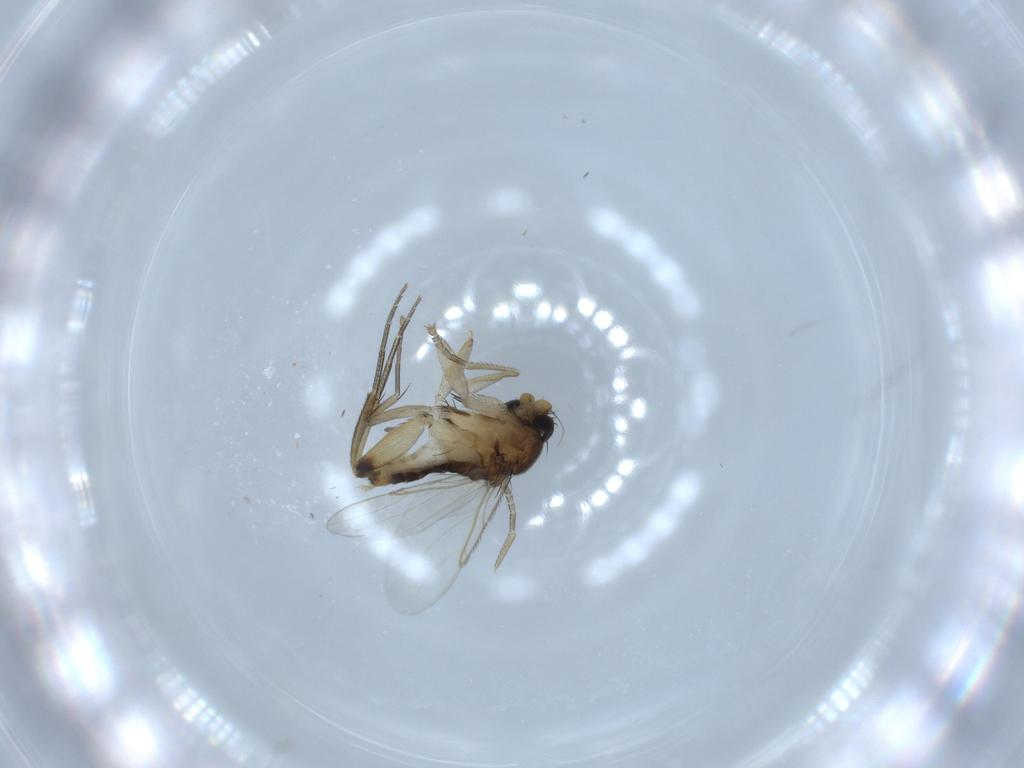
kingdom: Animalia
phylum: Arthropoda
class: Insecta
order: Diptera
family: Phoridae
